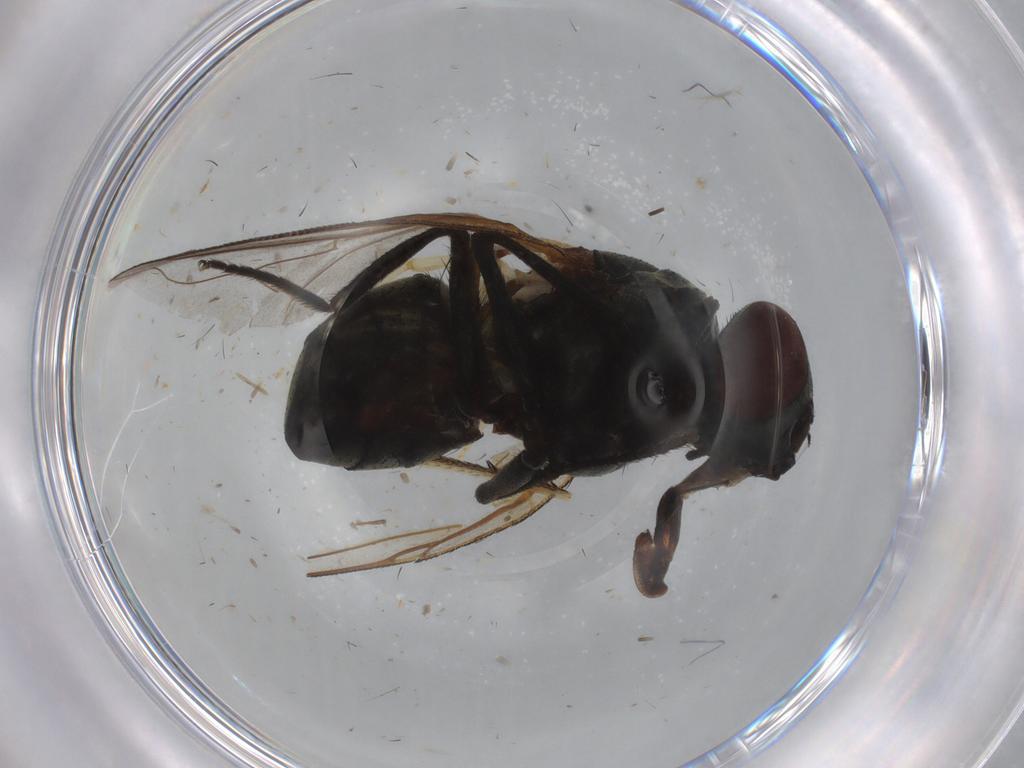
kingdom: Animalia
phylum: Arthropoda
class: Insecta
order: Diptera
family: Muscidae
